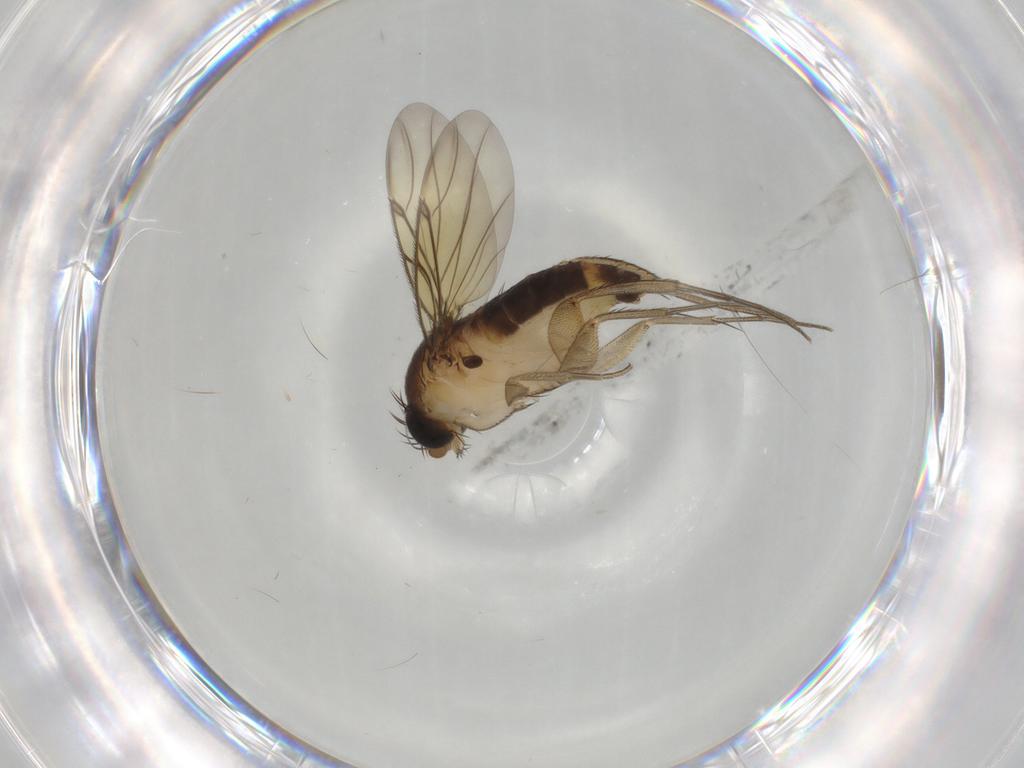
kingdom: Animalia
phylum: Arthropoda
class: Insecta
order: Diptera
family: Chironomidae
